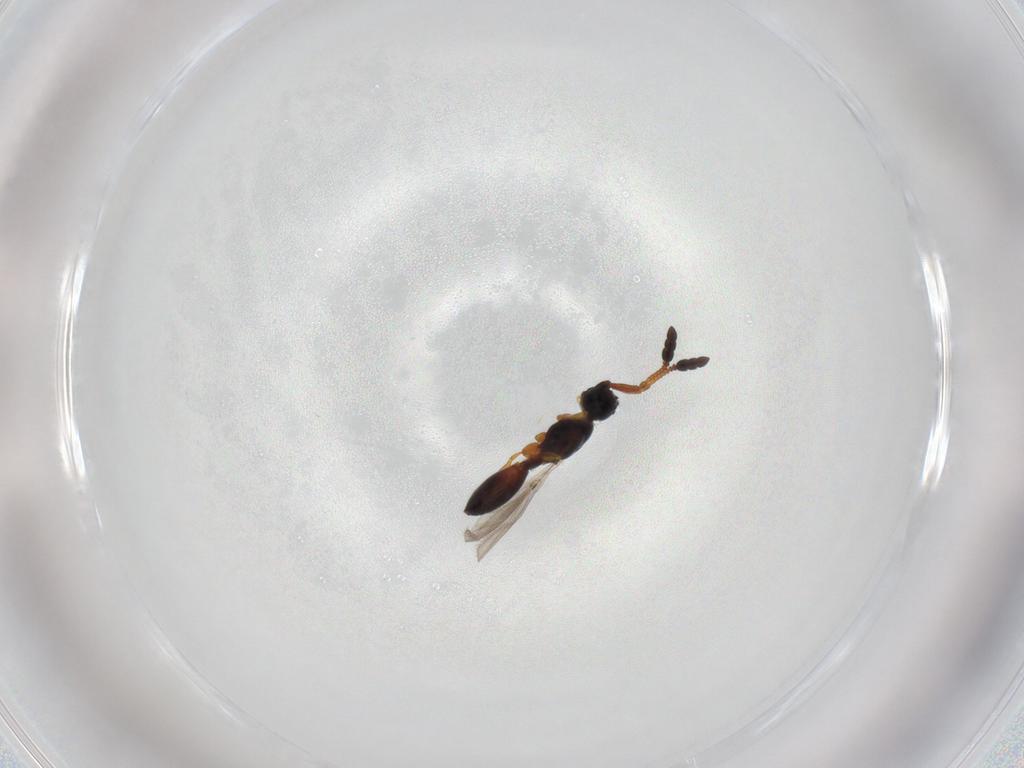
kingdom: Animalia
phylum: Arthropoda
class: Insecta
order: Hymenoptera
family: Diapriidae
